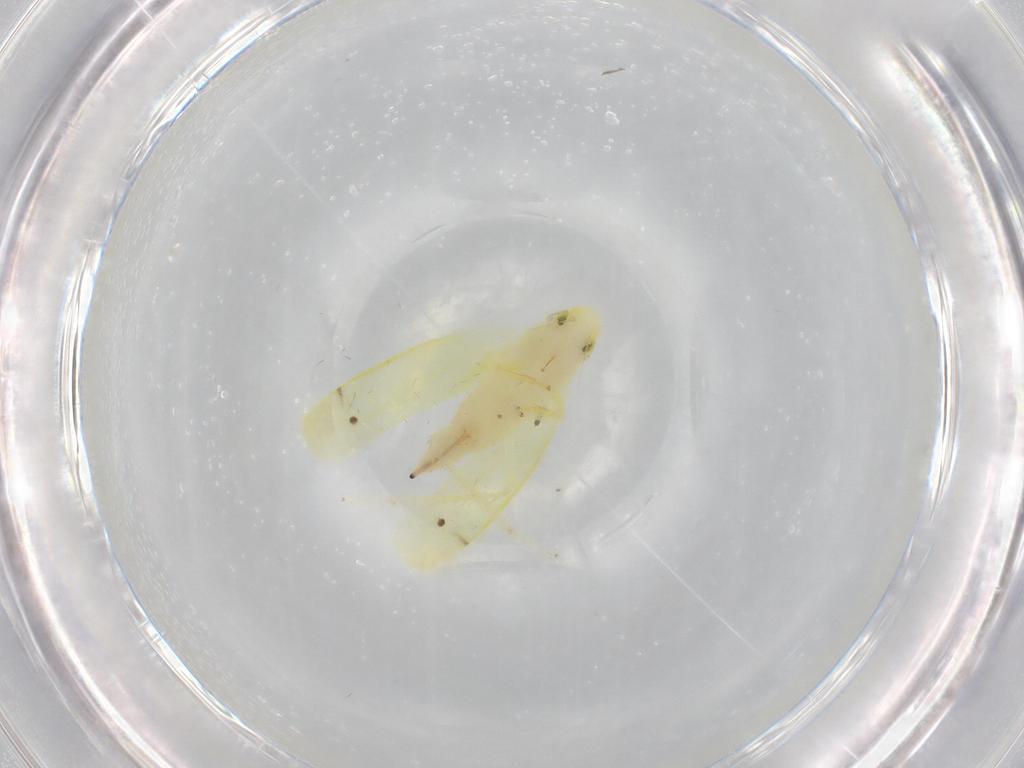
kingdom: Animalia
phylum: Arthropoda
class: Insecta
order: Hemiptera
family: Cicadellidae
